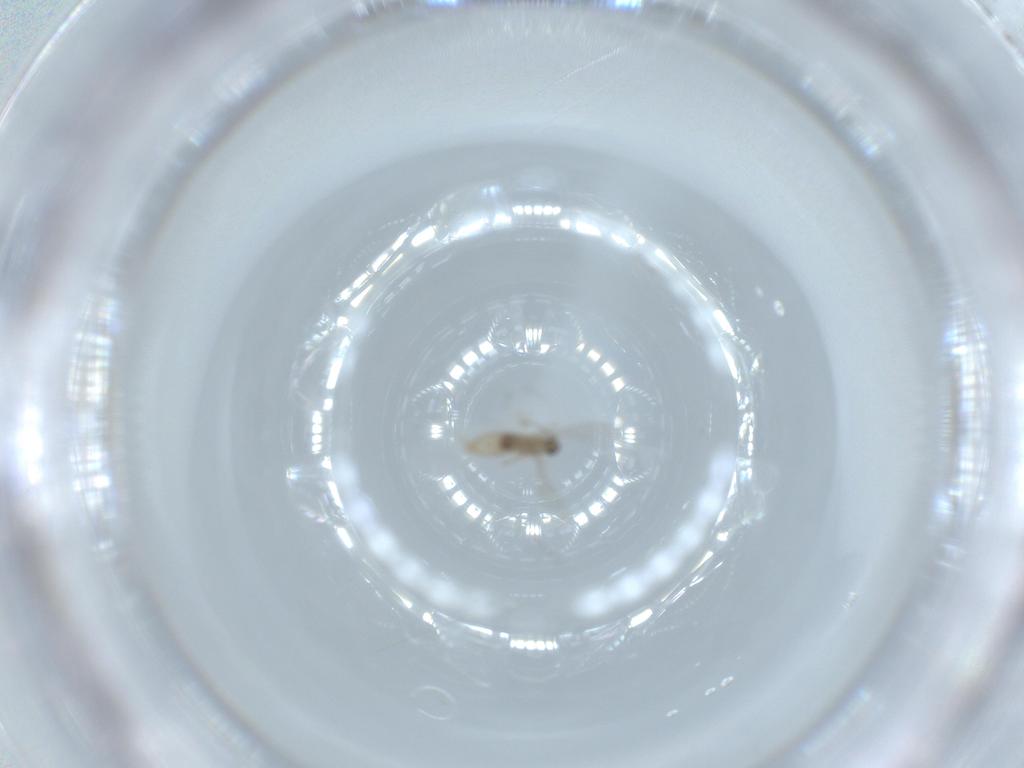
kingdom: Animalia
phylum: Arthropoda
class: Insecta
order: Diptera
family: Cecidomyiidae
